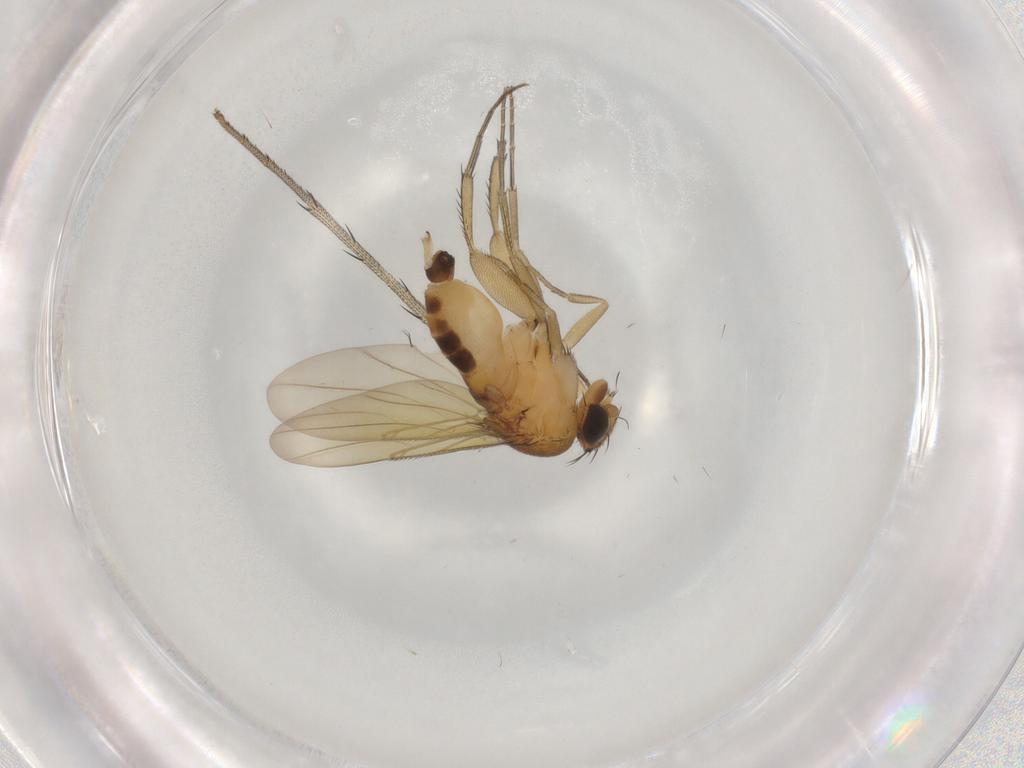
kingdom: Animalia
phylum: Arthropoda
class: Insecta
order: Diptera
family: Phoridae
